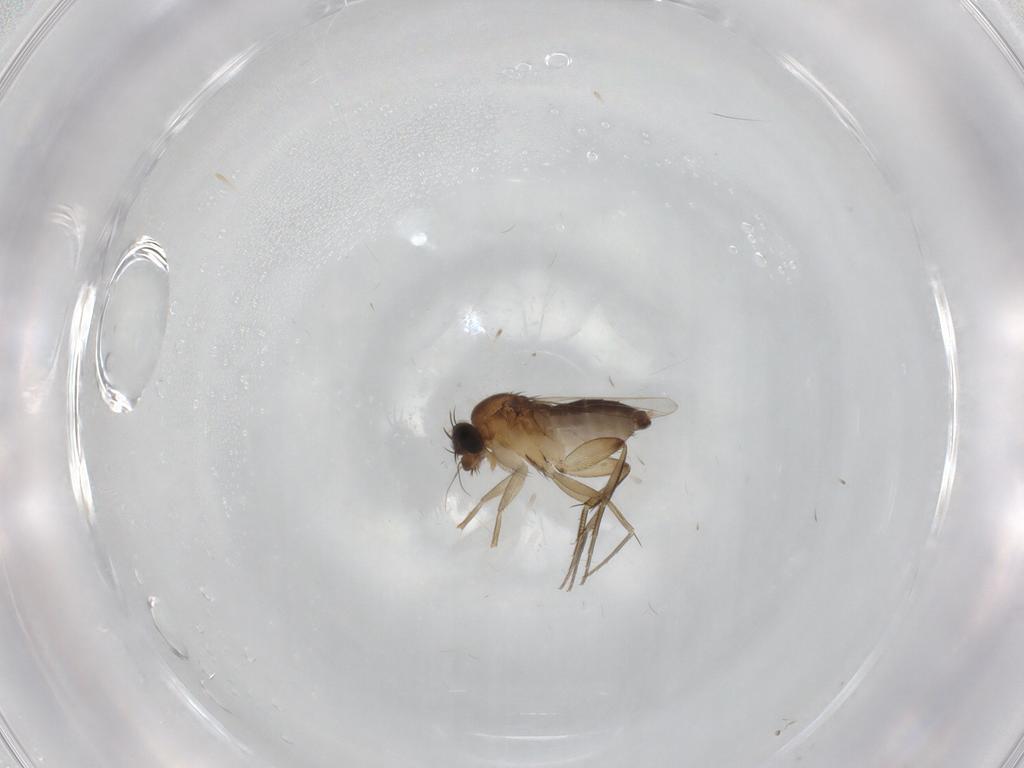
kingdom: Animalia
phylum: Arthropoda
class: Insecta
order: Diptera
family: Phoridae
